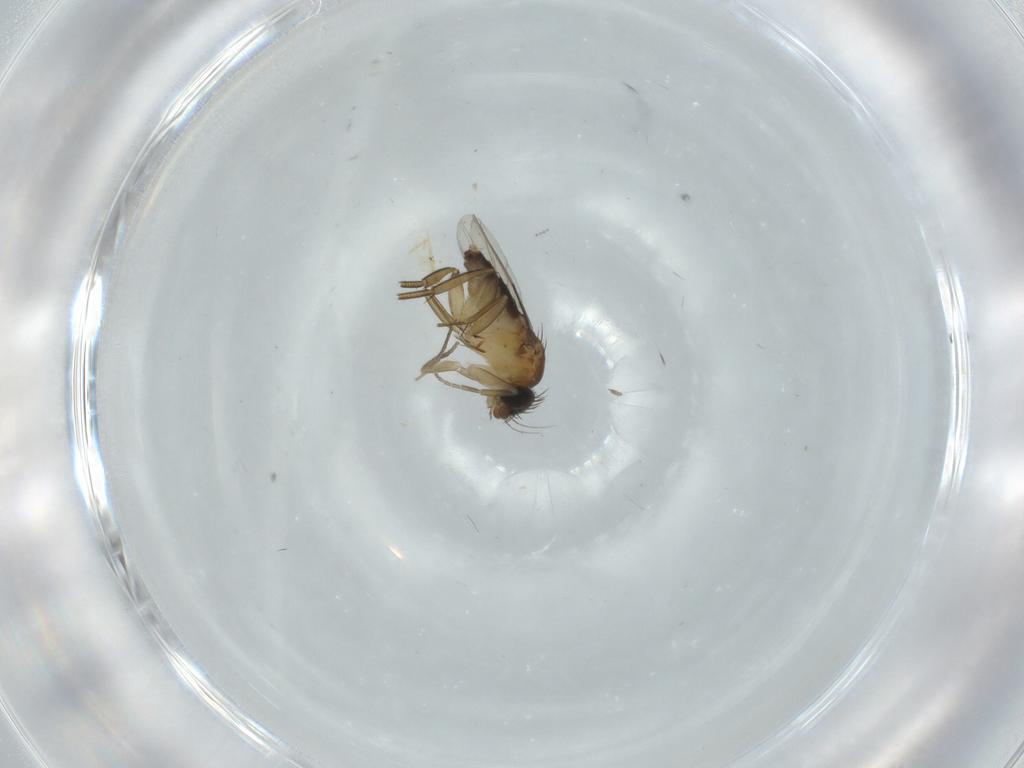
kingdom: Animalia
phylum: Arthropoda
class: Insecta
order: Diptera
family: Phoridae
